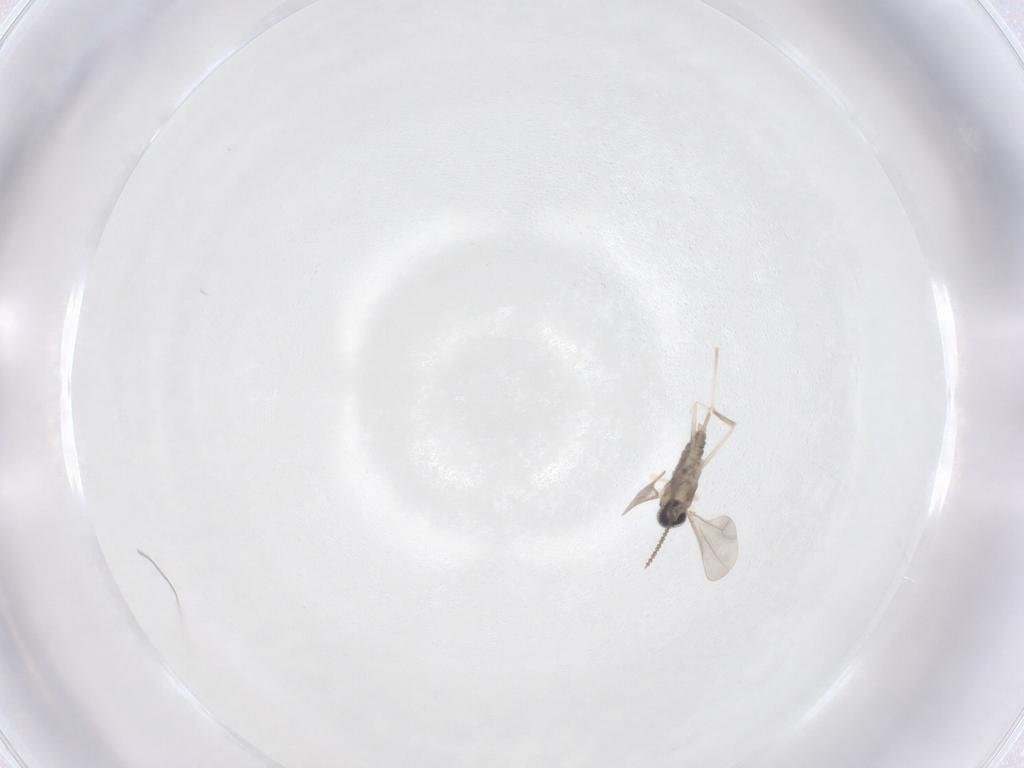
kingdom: Animalia
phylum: Arthropoda
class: Insecta
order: Diptera
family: Cecidomyiidae
